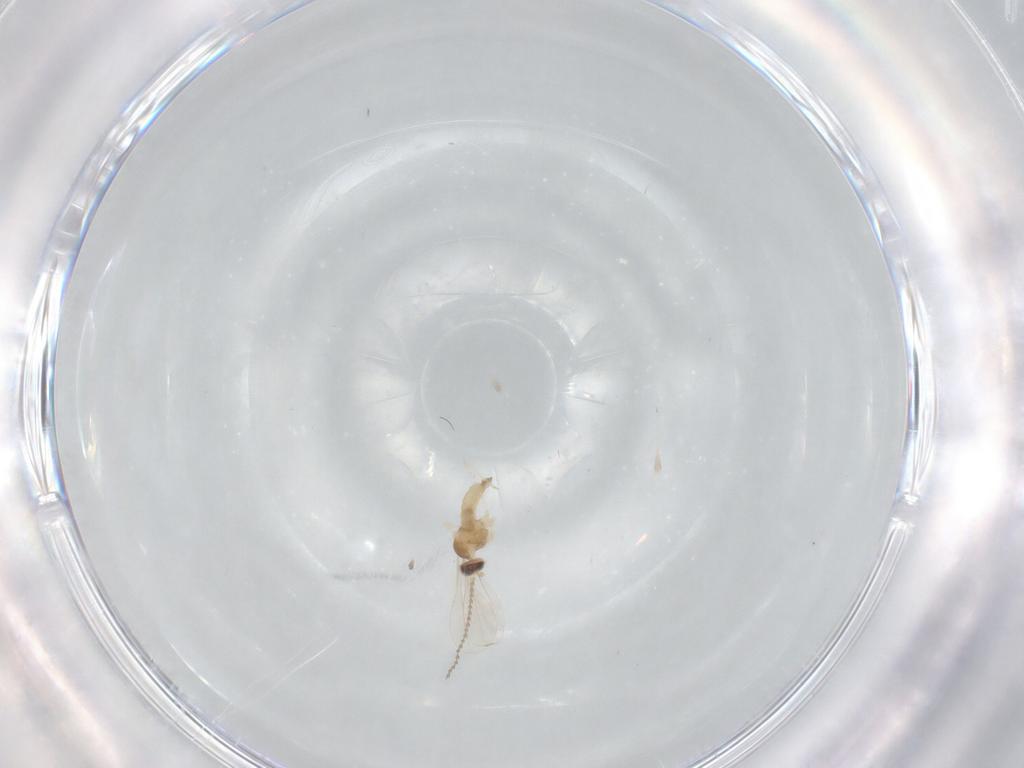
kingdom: Animalia
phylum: Arthropoda
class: Insecta
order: Diptera
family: Cecidomyiidae
